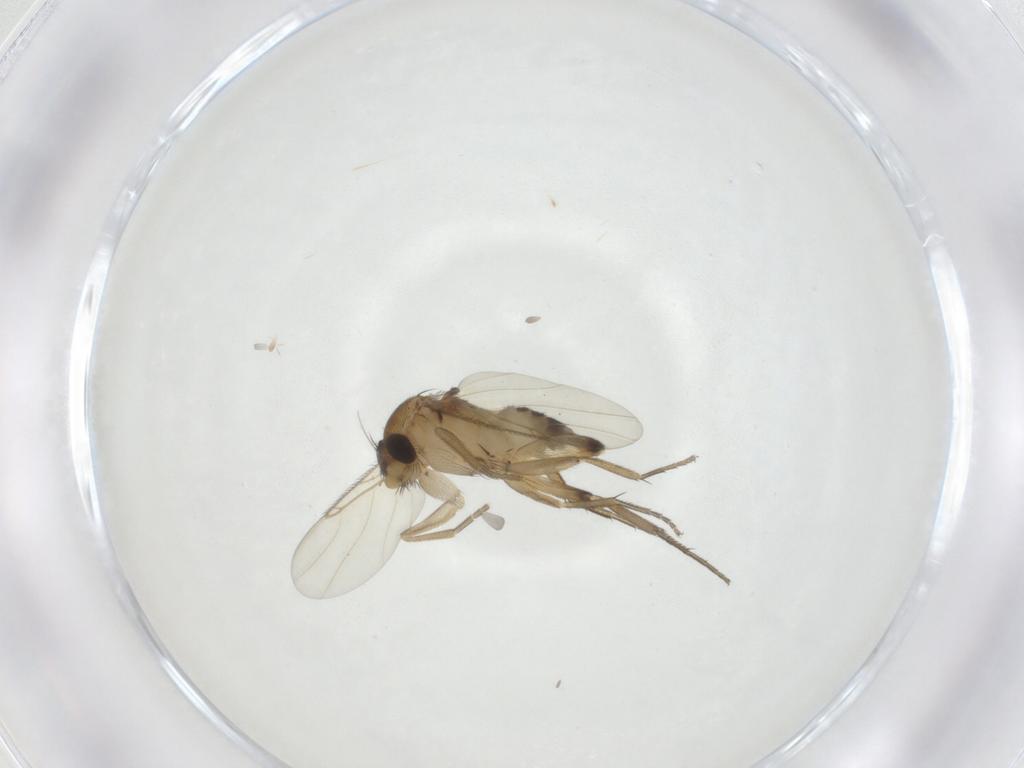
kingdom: Animalia
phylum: Arthropoda
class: Insecta
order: Diptera
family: Phoridae
